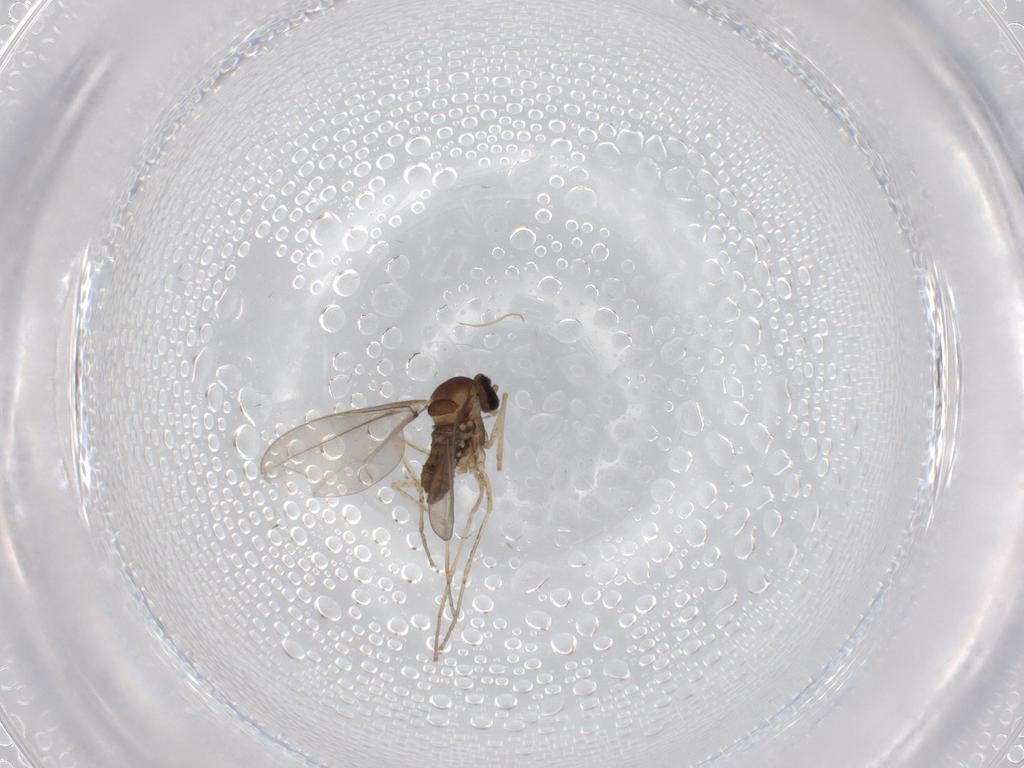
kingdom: Animalia
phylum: Arthropoda
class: Insecta
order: Diptera
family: Cecidomyiidae
